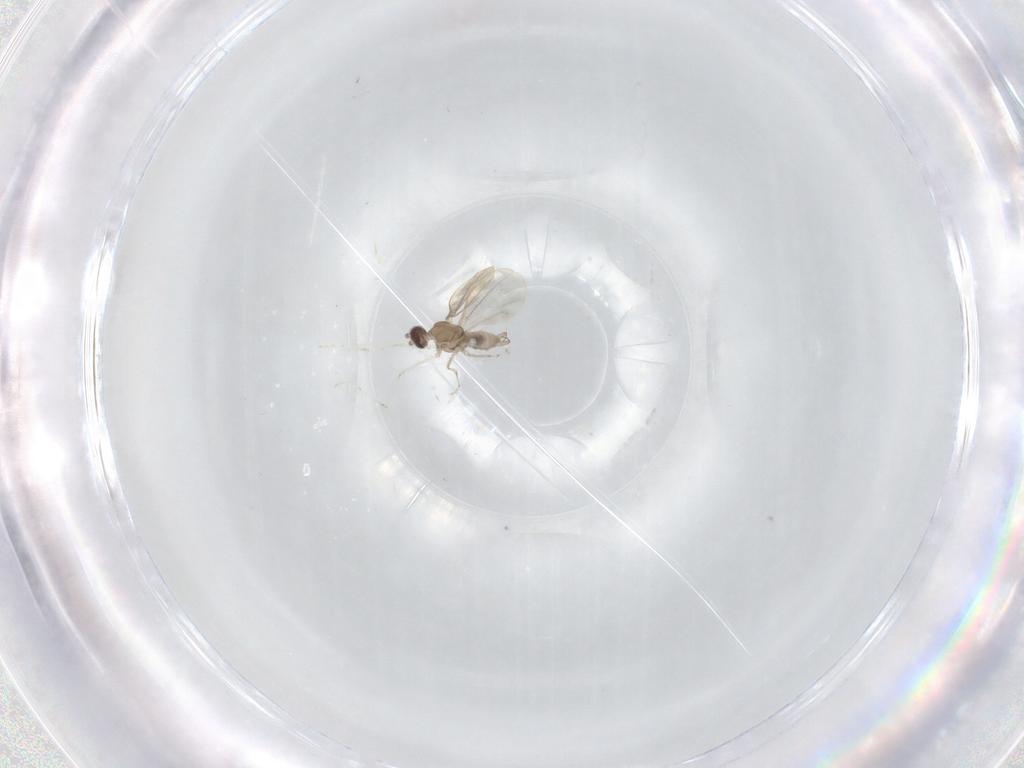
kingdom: Animalia
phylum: Arthropoda
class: Insecta
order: Diptera
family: Cecidomyiidae
